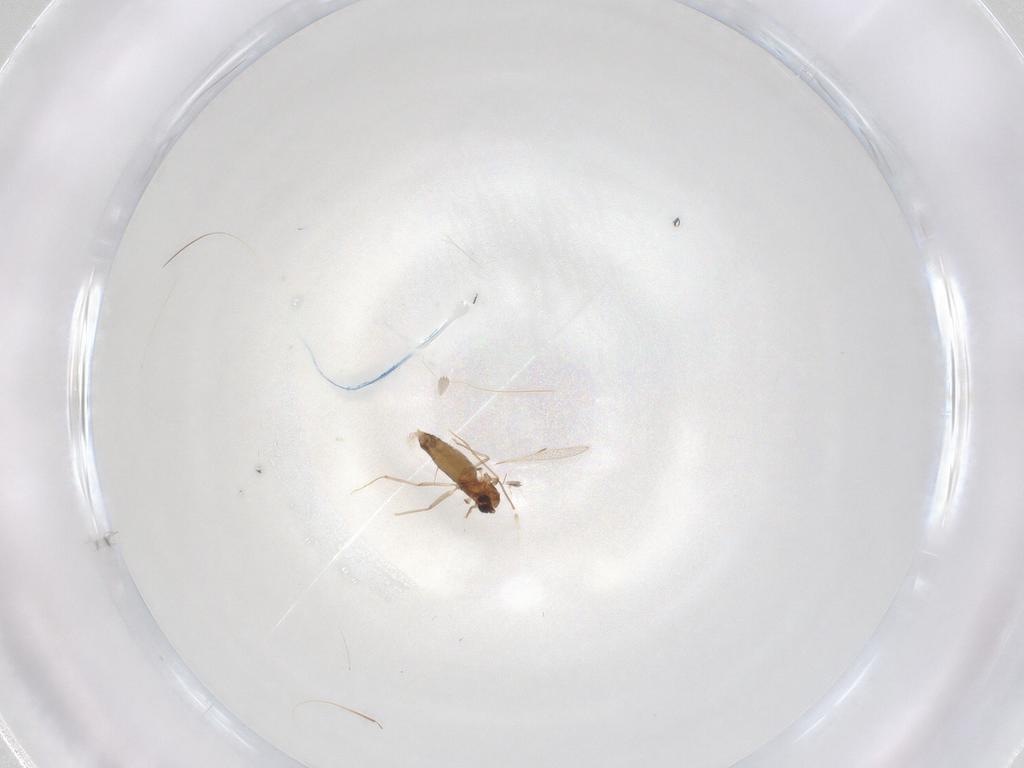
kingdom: Animalia
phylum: Arthropoda
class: Insecta
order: Diptera
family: Chironomidae
